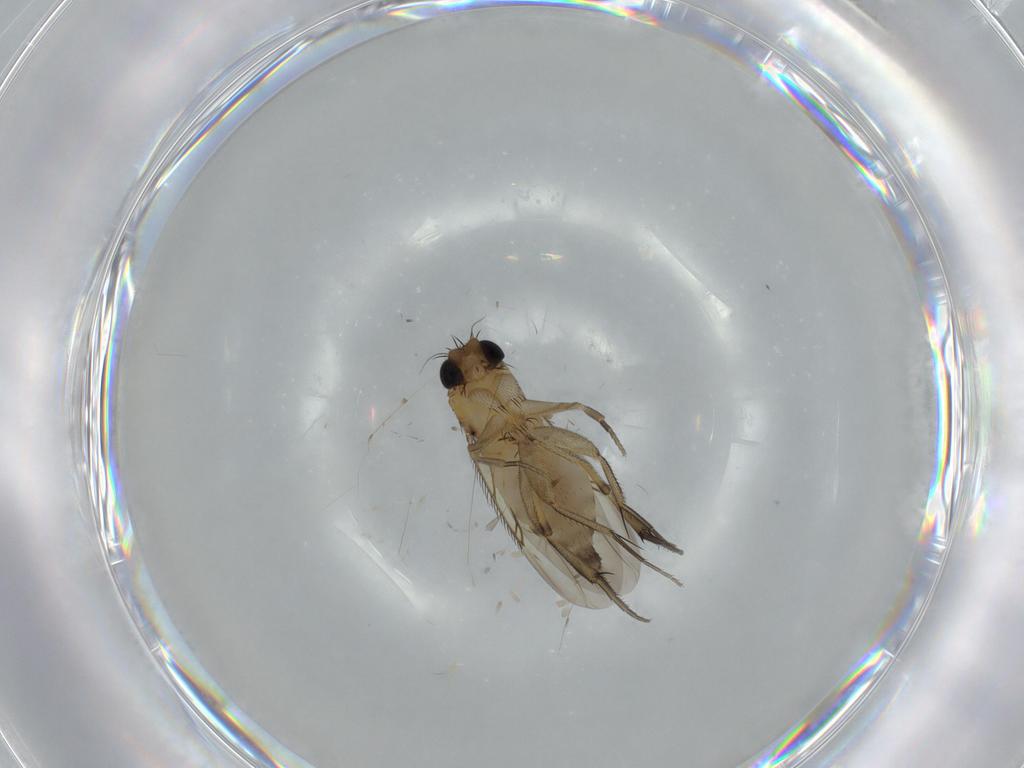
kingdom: Animalia
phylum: Arthropoda
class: Insecta
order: Diptera
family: Phoridae
